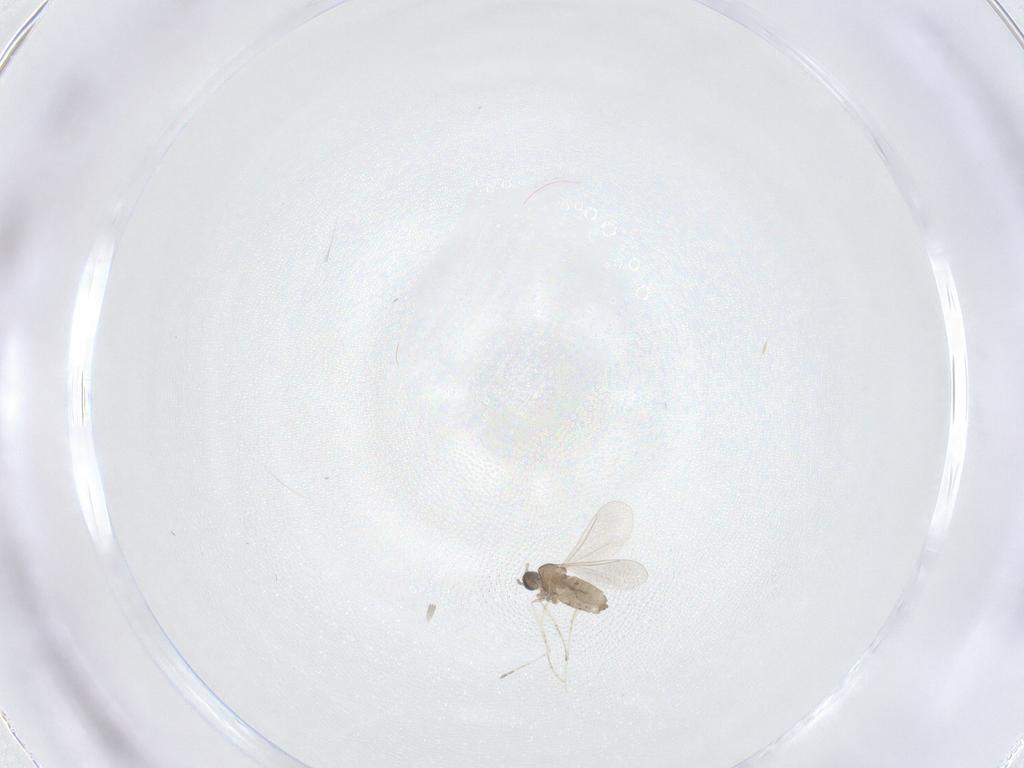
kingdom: Animalia
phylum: Arthropoda
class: Insecta
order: Diptera
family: Cecidomyiidae
